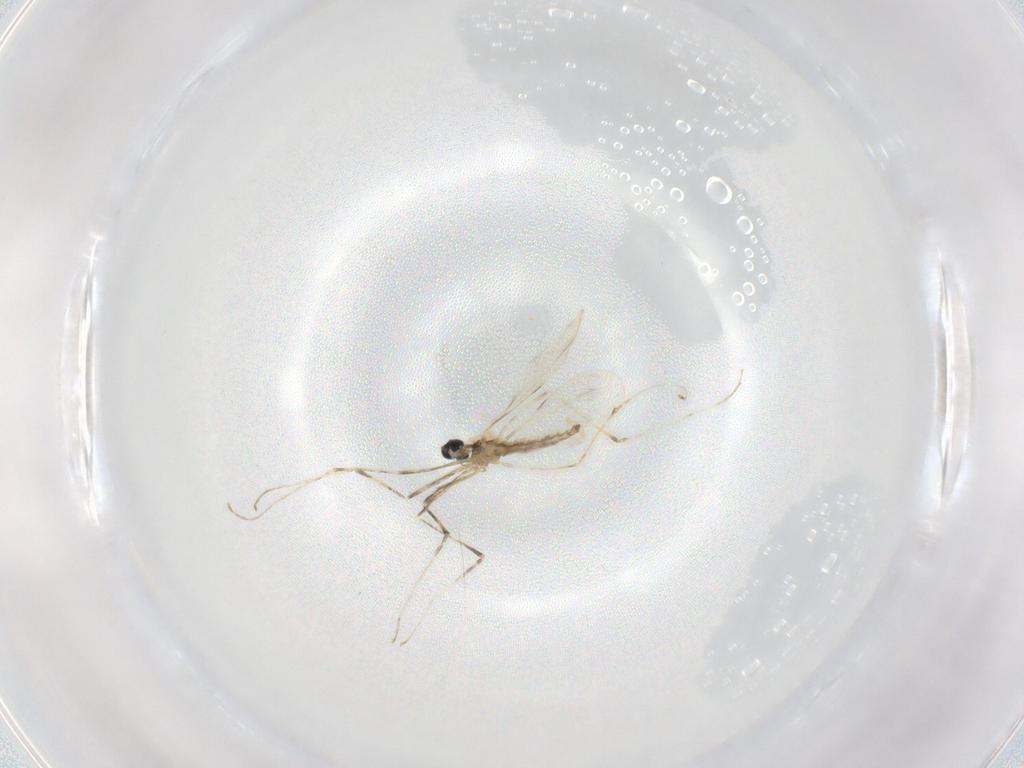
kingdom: Animalia
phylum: Arthropoda
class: Insecta
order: Diptera
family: Cecidomyiidae
